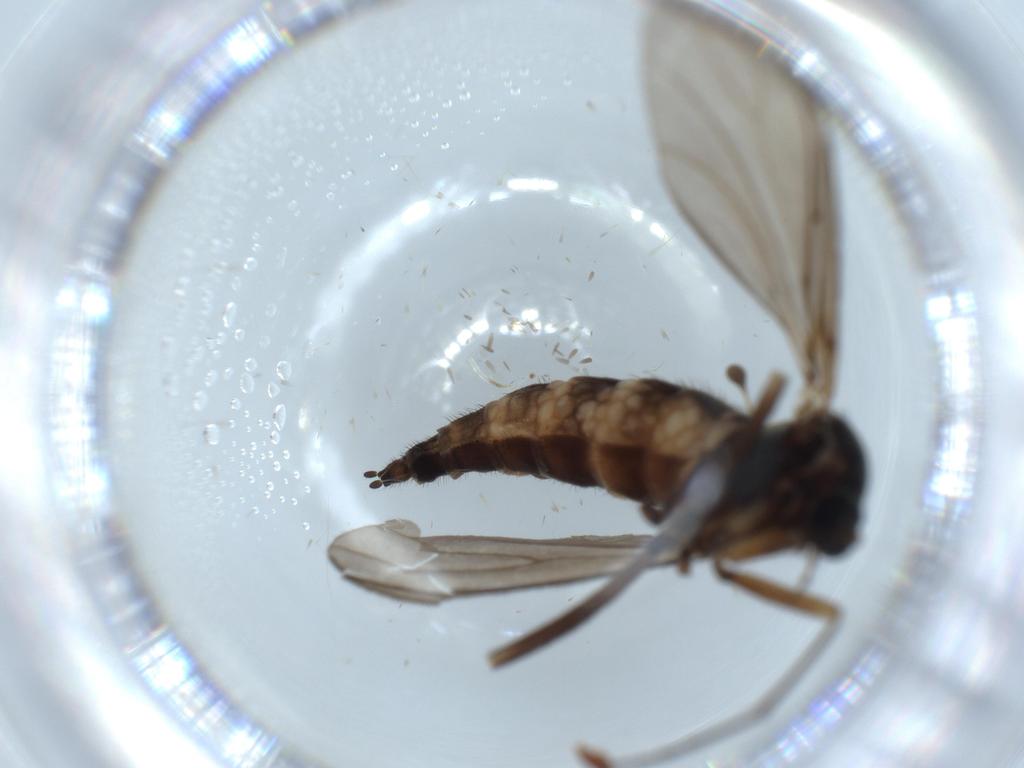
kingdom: Animalia
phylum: Arthropoda
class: Insecta
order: Diptera
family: Sciaridae
